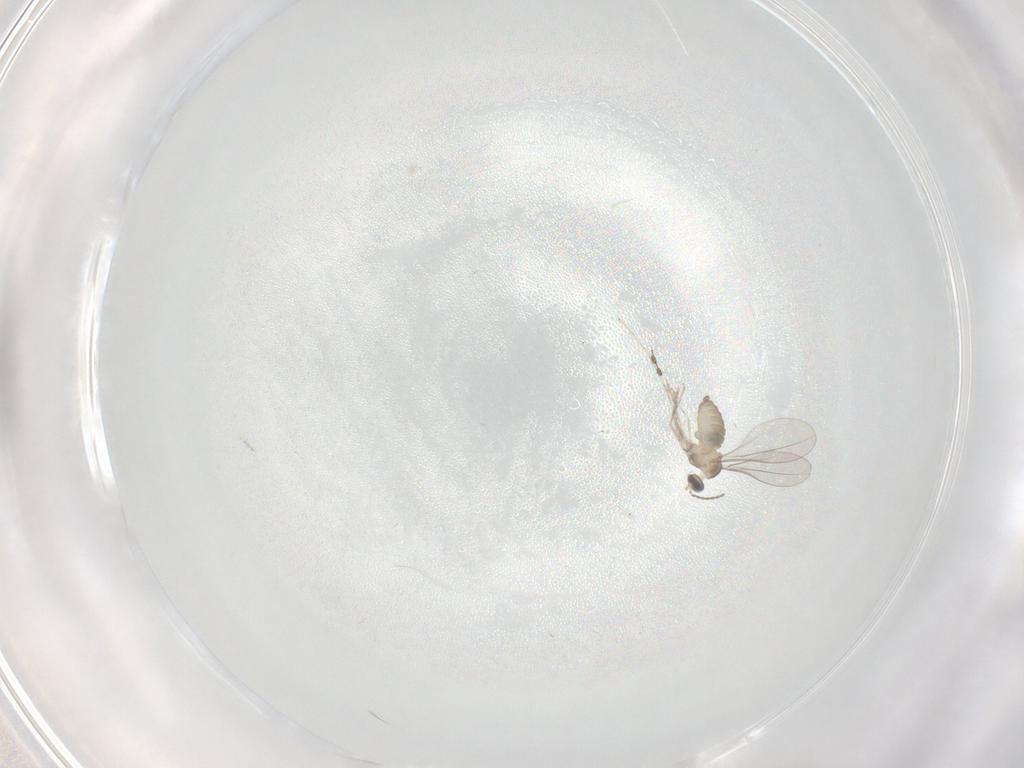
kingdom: Animalia
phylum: Arthropoda
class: Insecta
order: Diptera
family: Cecidomyiidae
